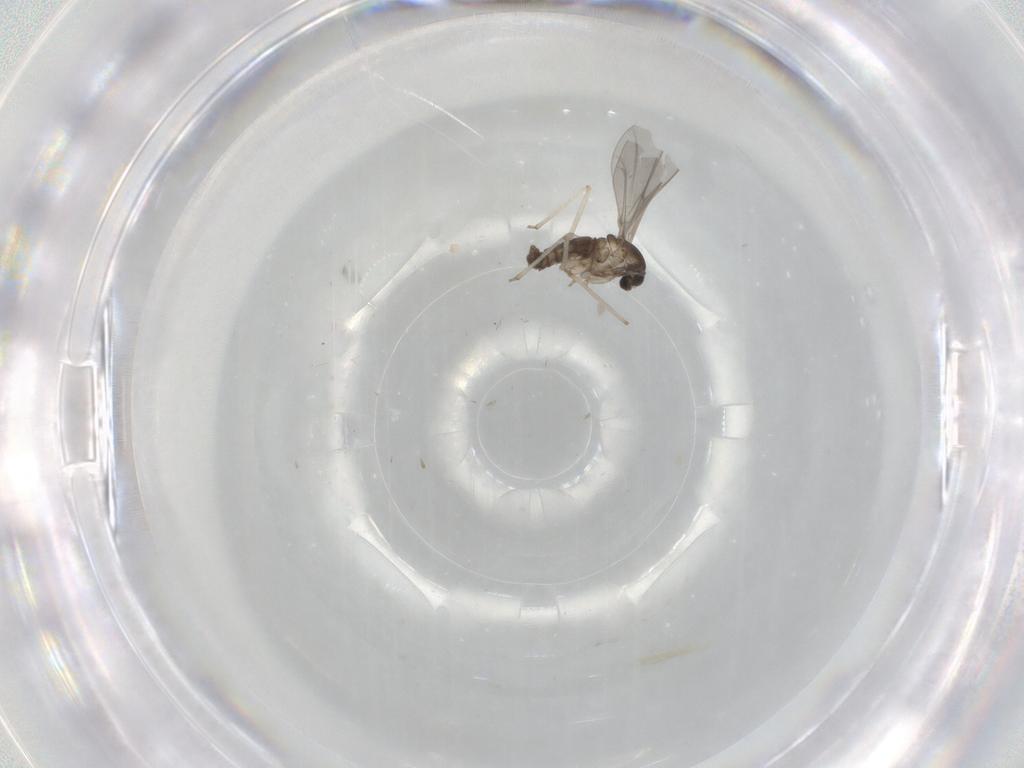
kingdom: Animalia
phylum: Arthropoda
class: Insecta
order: Diptera
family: Cecidomyiidae
